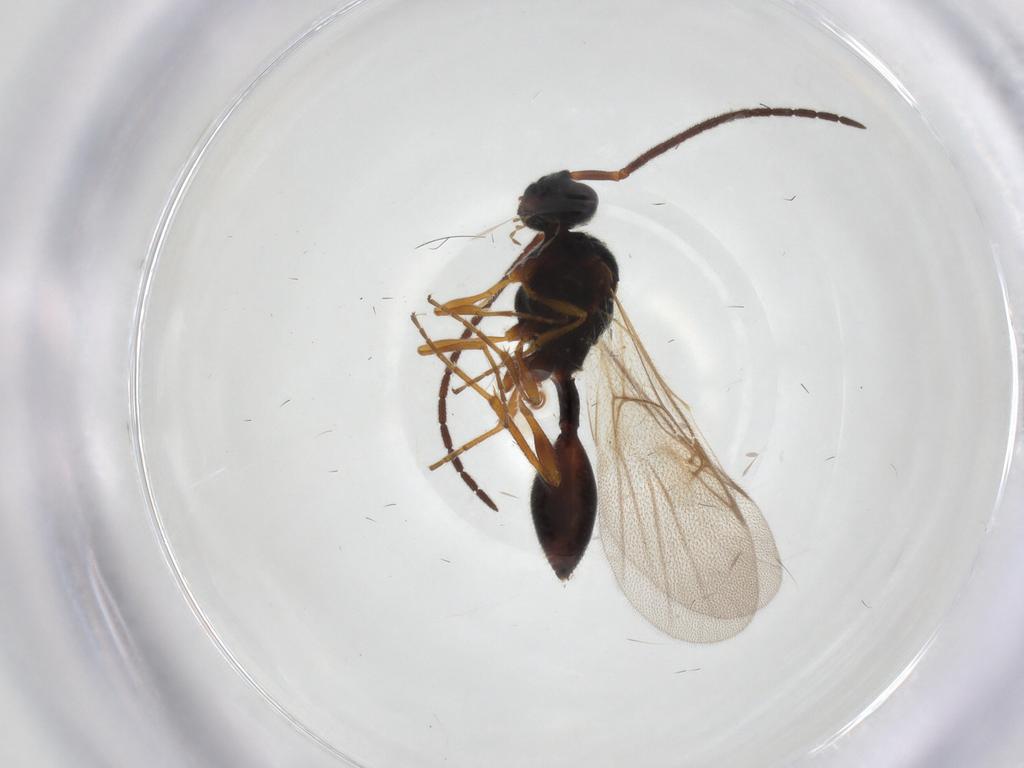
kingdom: Animalia
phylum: Arthropoda
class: Insecta
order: Hymenoptera
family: Diapriidae
